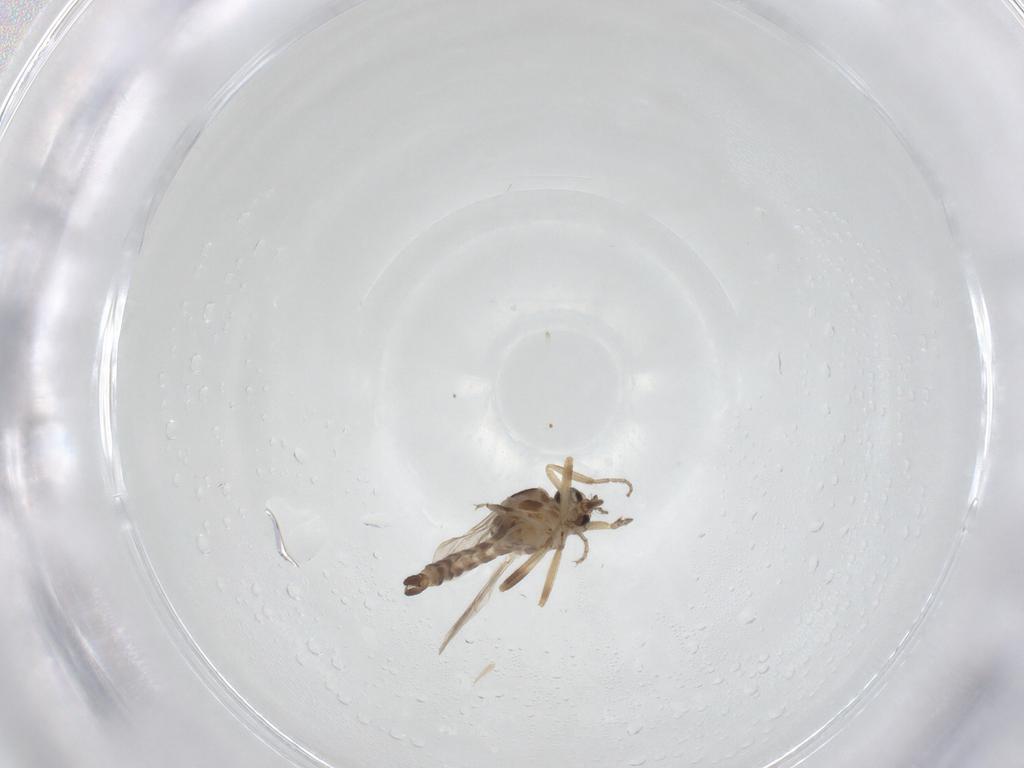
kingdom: Animalia
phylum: Arthropoda
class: Insecta
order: Diptera
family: Ceratopogonidae
